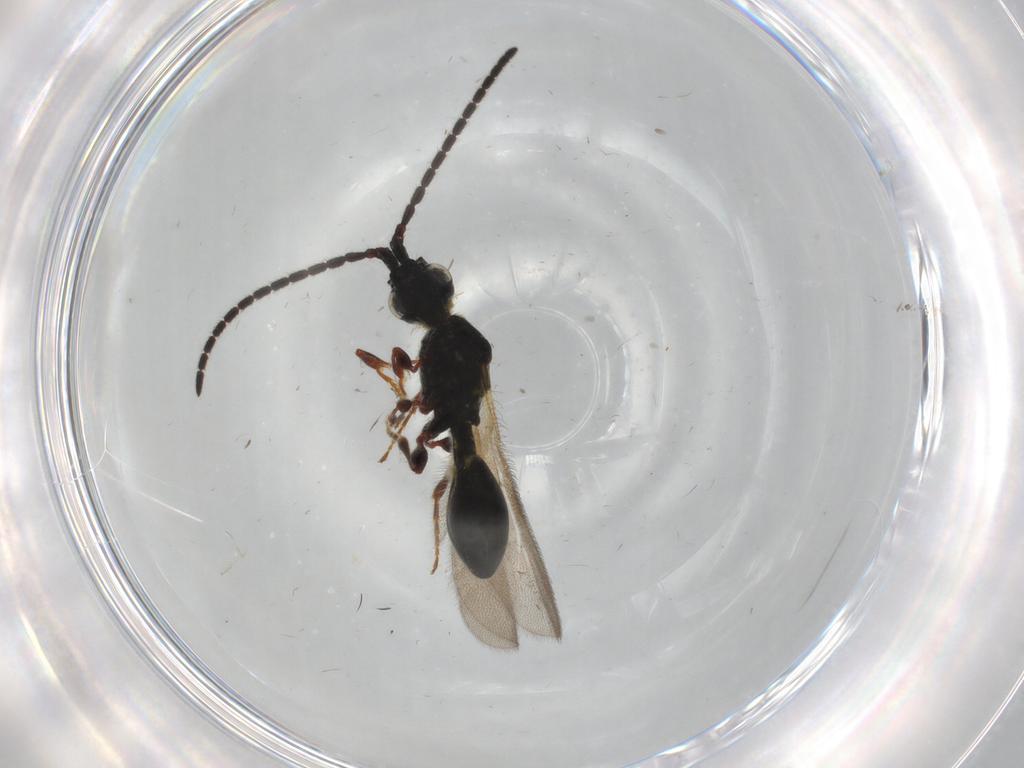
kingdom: Animalia
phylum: Arthropoda
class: Insecta
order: Hymenoptera
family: Diapriidae
